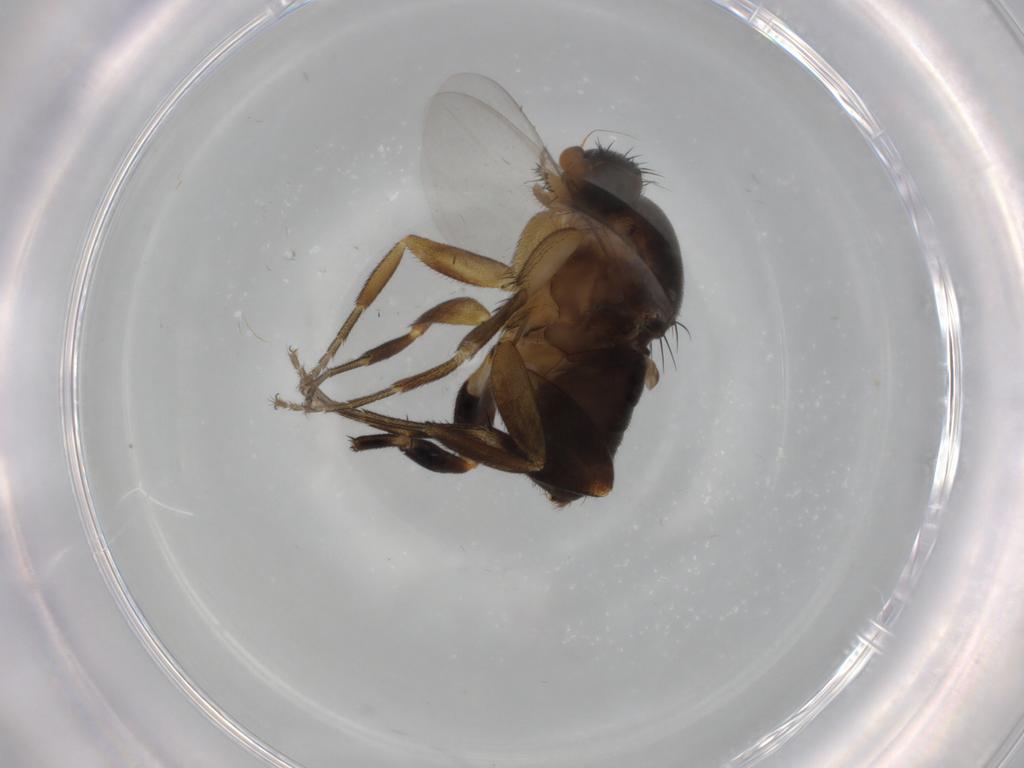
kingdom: Animalia
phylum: Arthropoda
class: Insecta
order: Diptera
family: Phoridae
